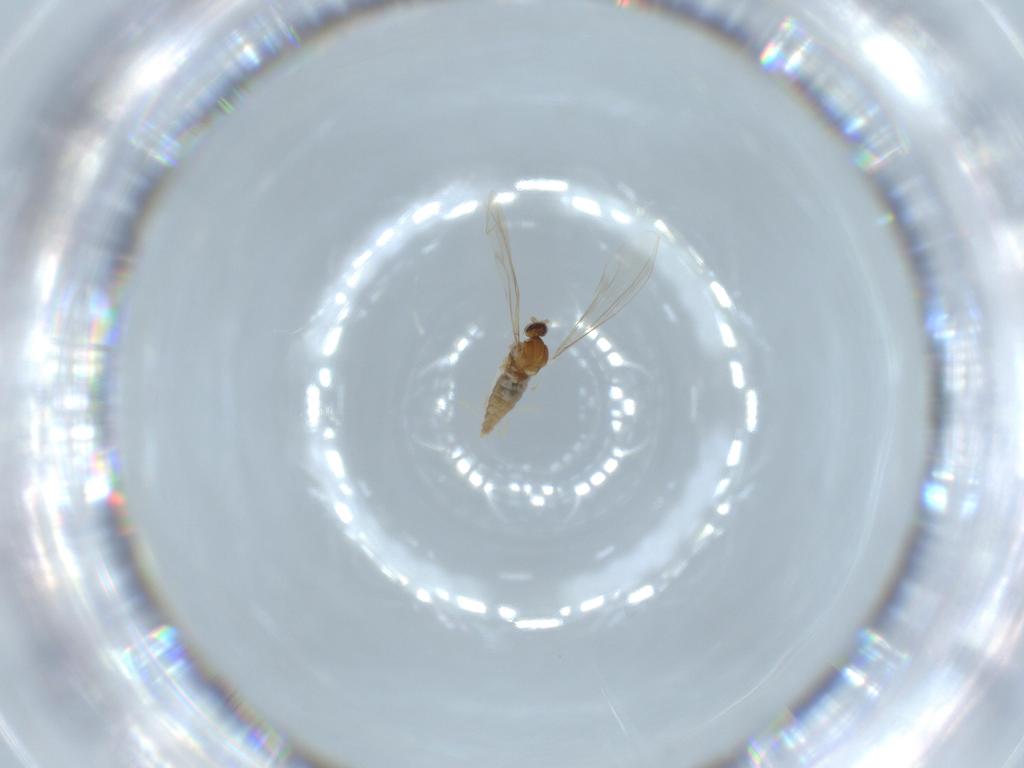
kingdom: Animalia
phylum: Arthropoda
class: Insecta
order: Diptera
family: Cecidomyiidae
